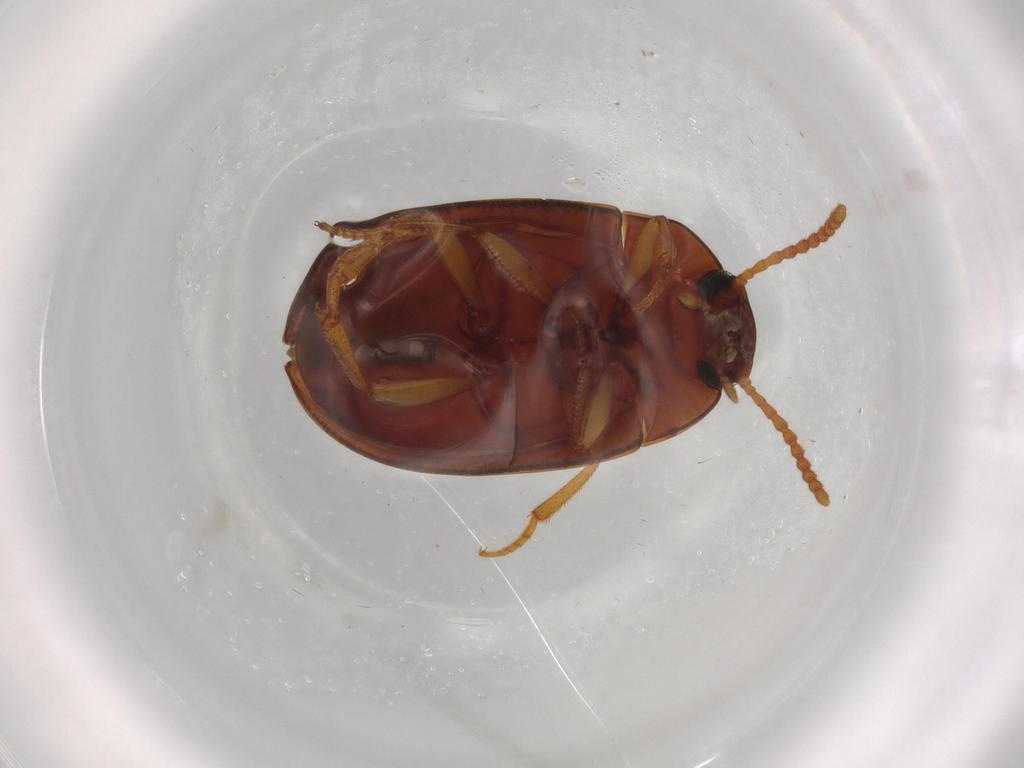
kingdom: Animalia
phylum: Arthropoda
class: Insecta
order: Coleoptera
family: Ptilodactylidae
